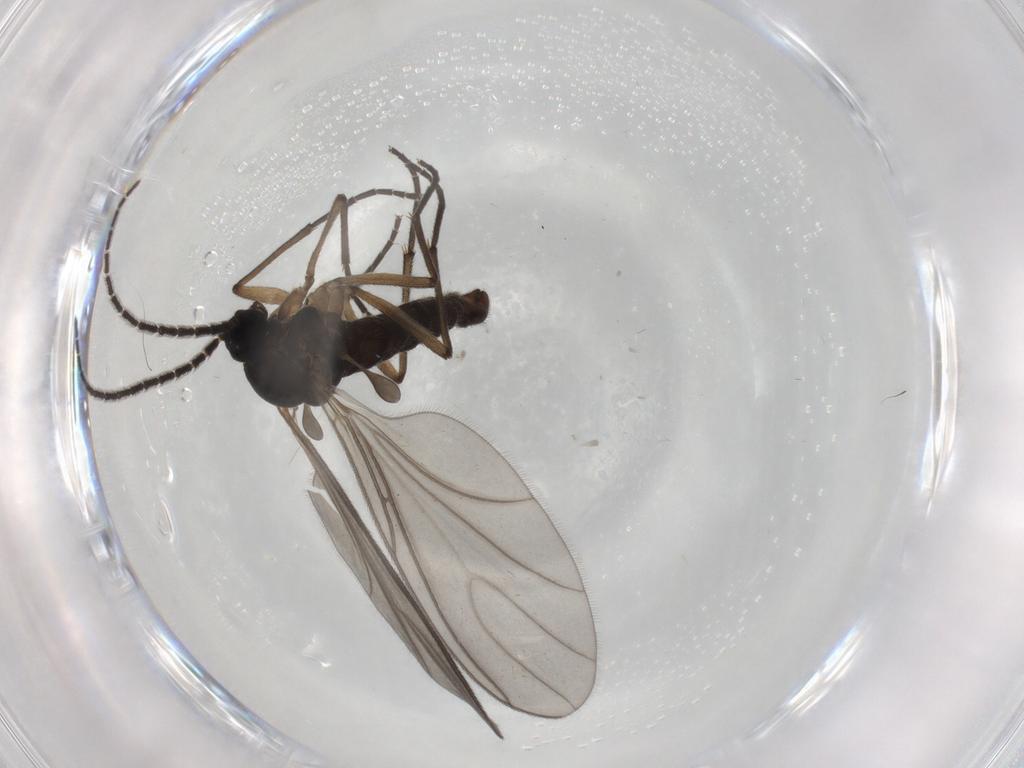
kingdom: Animalia
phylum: Arthropoda
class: Insecta
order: Diptera
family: Sciaridae
